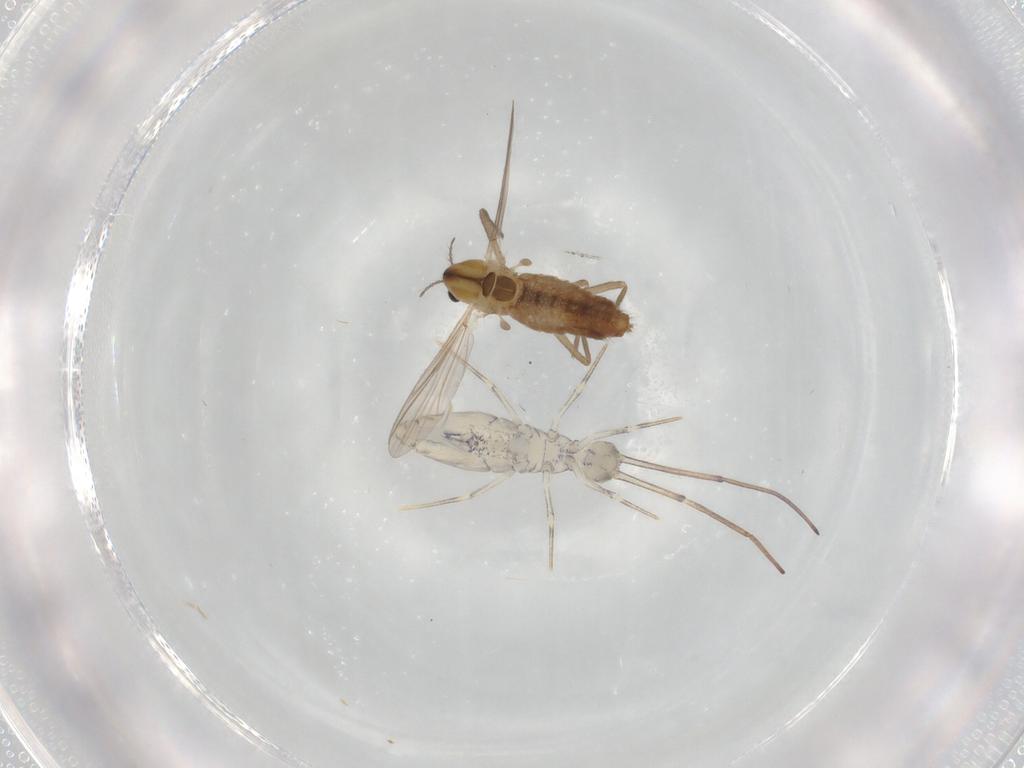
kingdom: Animalia
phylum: Arthropoda
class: Insecta
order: Diptera
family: Chironomidae
